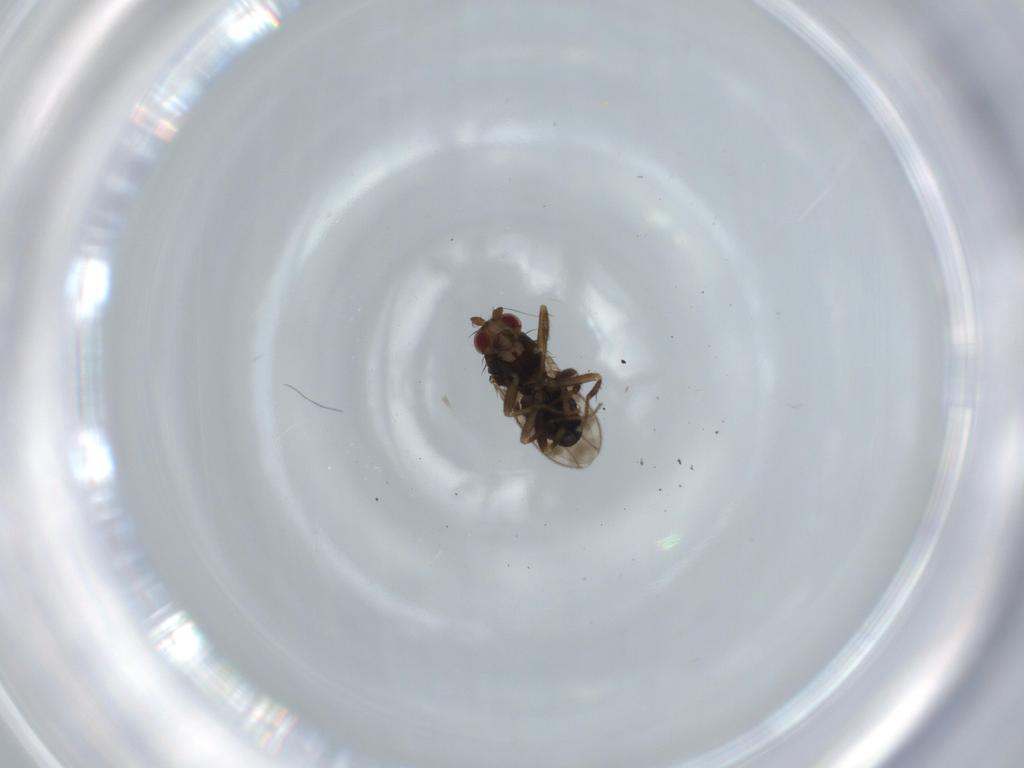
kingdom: Animalia
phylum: Arthropoda
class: Insecta
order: Diptera
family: Sphaeroceridae
